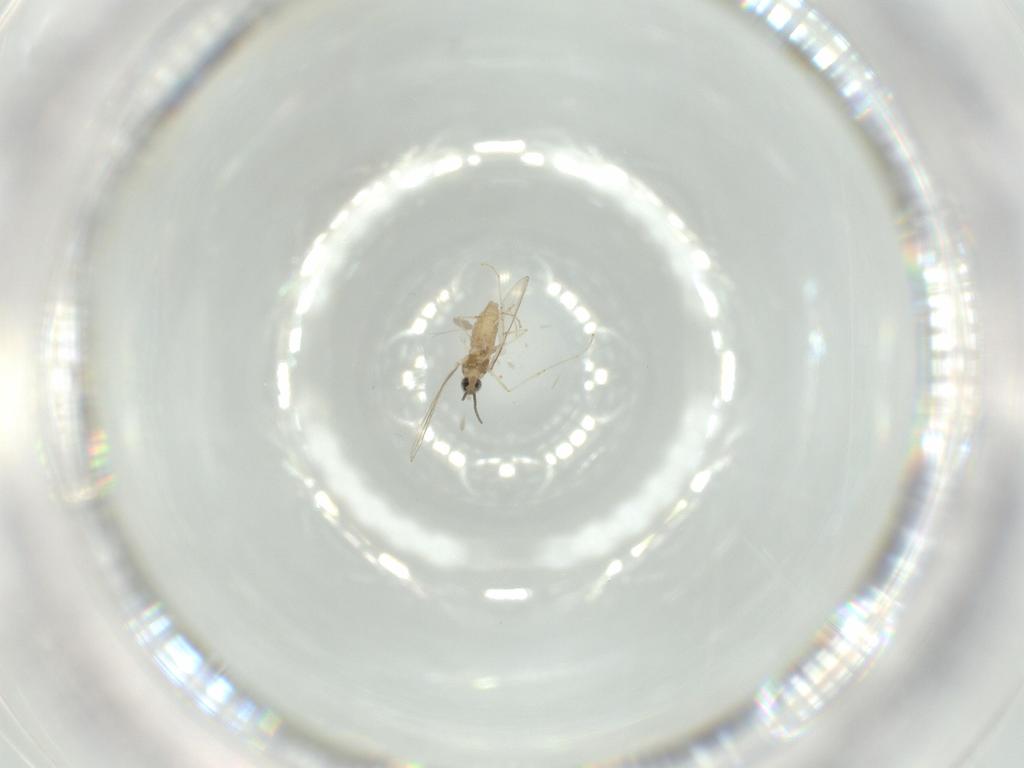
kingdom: Animalia
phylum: Arthropoda
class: Insecta
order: Diptera
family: Cecidomyiidae
